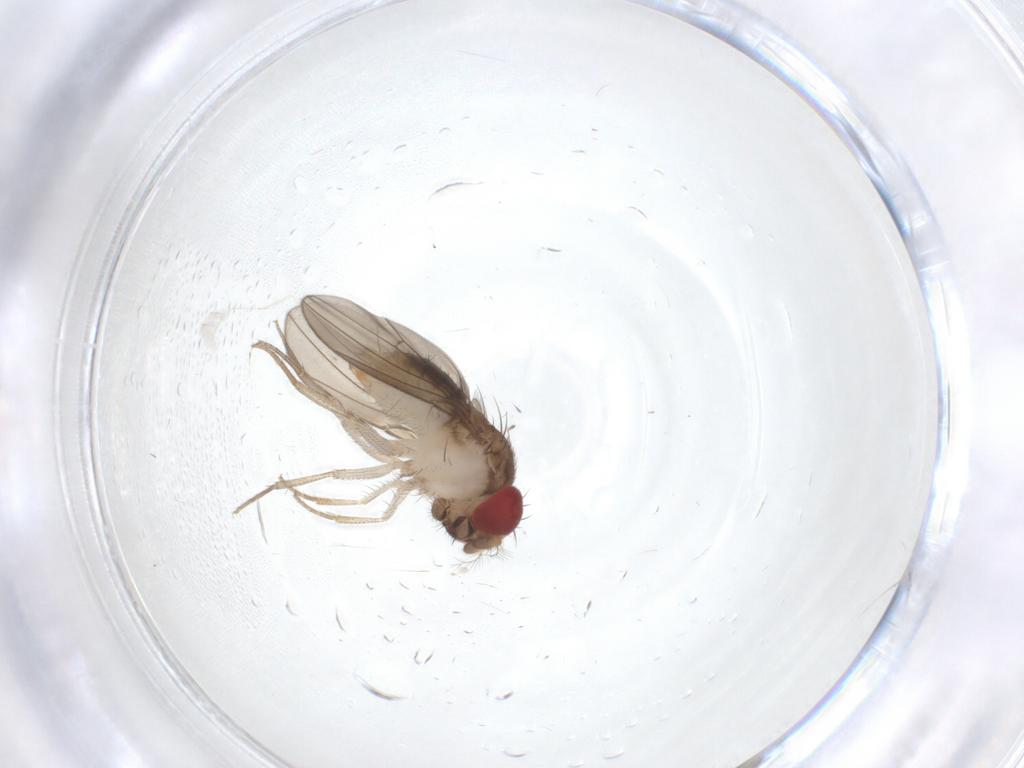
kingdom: Animalia
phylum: Arthropoda
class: Insecta
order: Diptera
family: Drosophilidae
